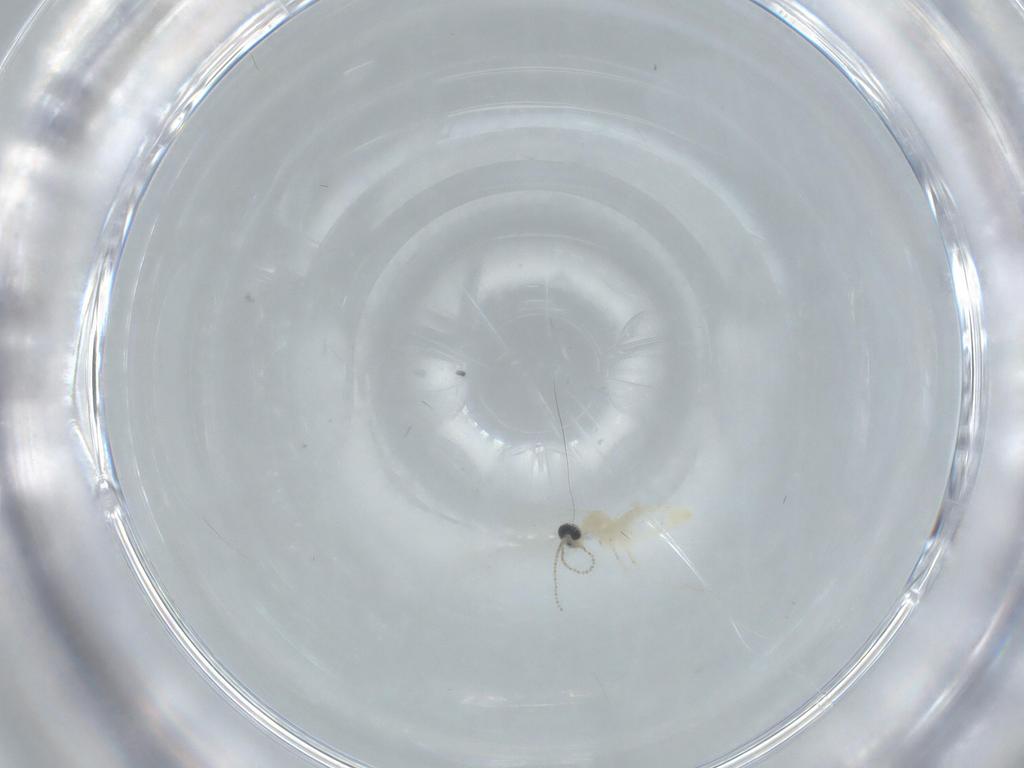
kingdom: Animalia
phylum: Arthropoda
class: Insecta
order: Diptera
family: Cecidomyiidae
